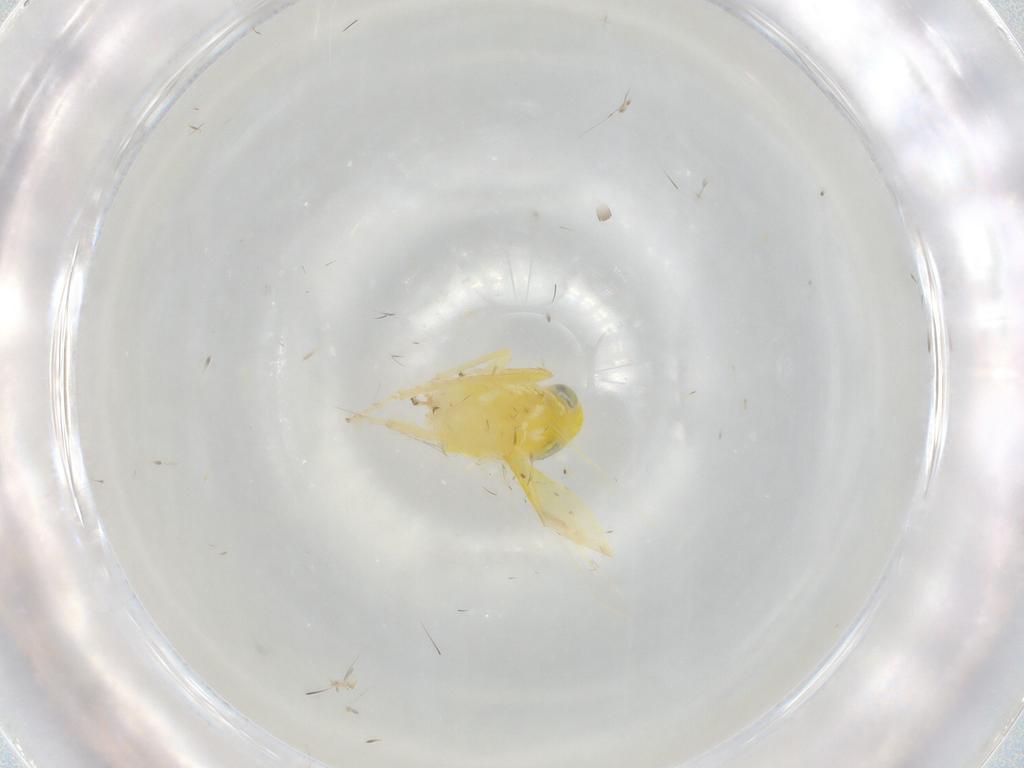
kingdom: Animalia
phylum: Arthropoda
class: Insecta
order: Hemiptera
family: Cicadellidae
